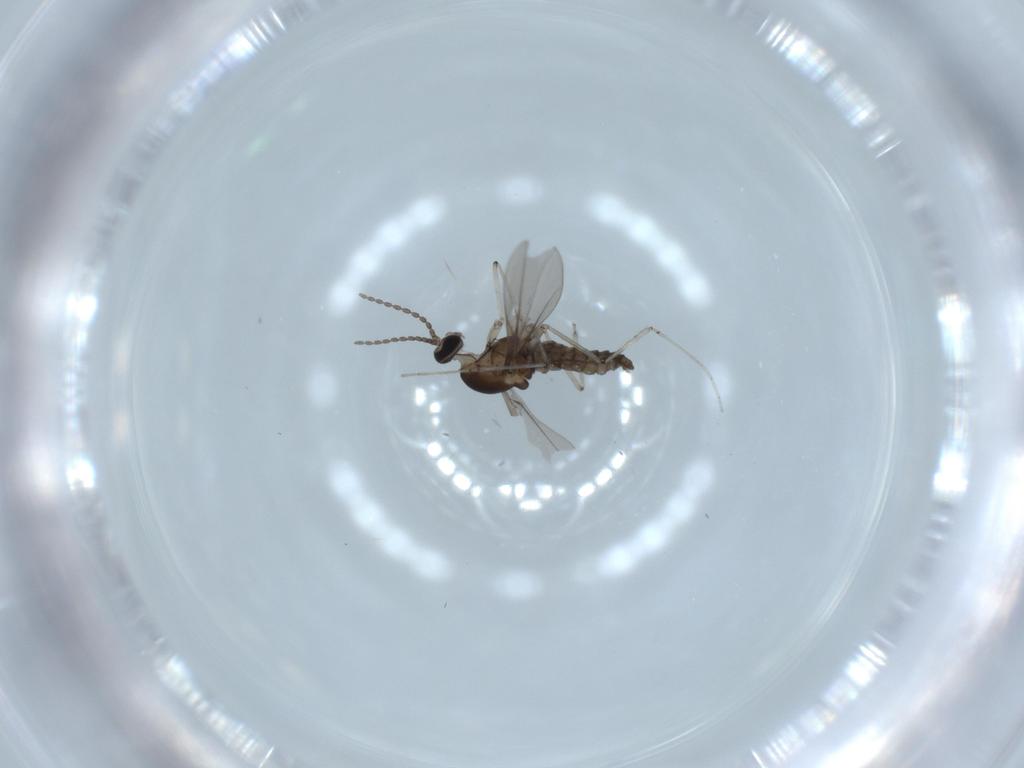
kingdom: Animalia
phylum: Arthropoda
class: Insecta
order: Diptera
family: Cecidomyiidae
